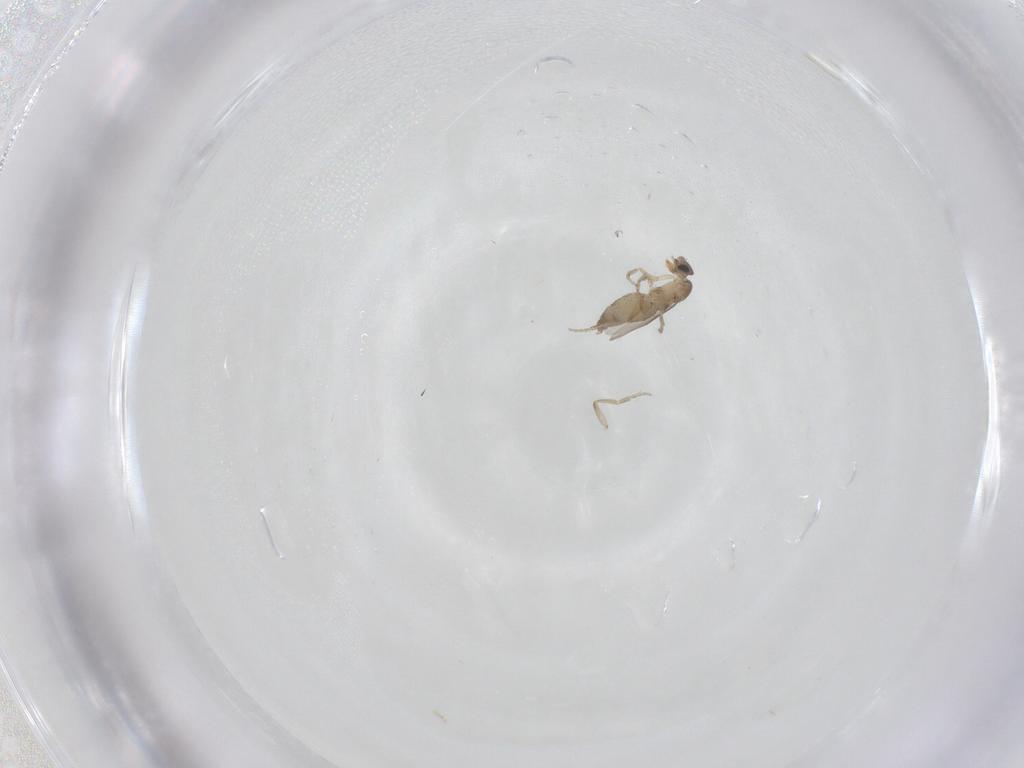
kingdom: Animalia
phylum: Arthropoda
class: Insecta
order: Diptera
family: Phoridae
